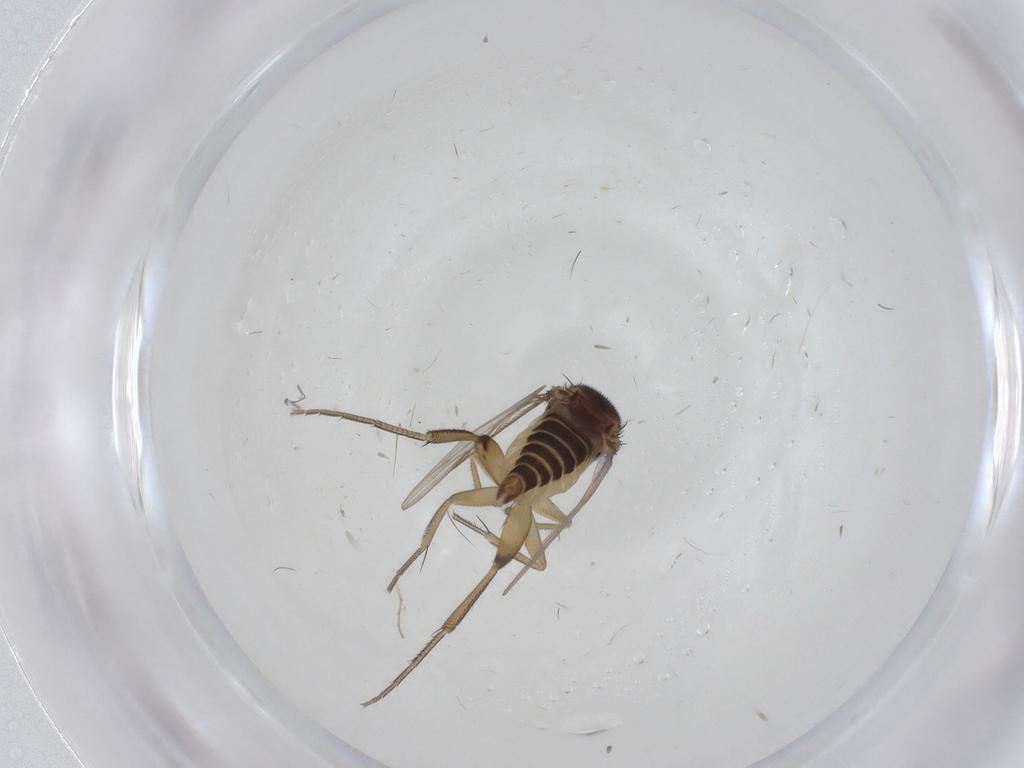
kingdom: Animalia
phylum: Arthropoda
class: Insecta
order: Diptera
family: Phoridae
